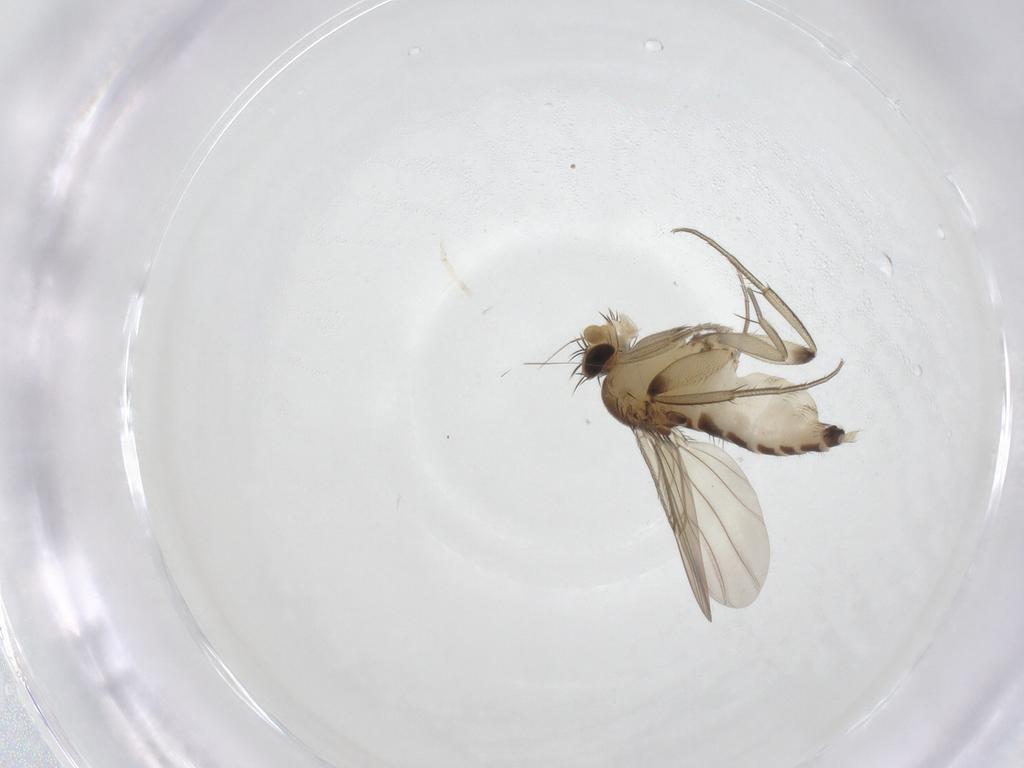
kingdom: Animalia
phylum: Arthropoda
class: Insecta
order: Diptera
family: Phoridae
